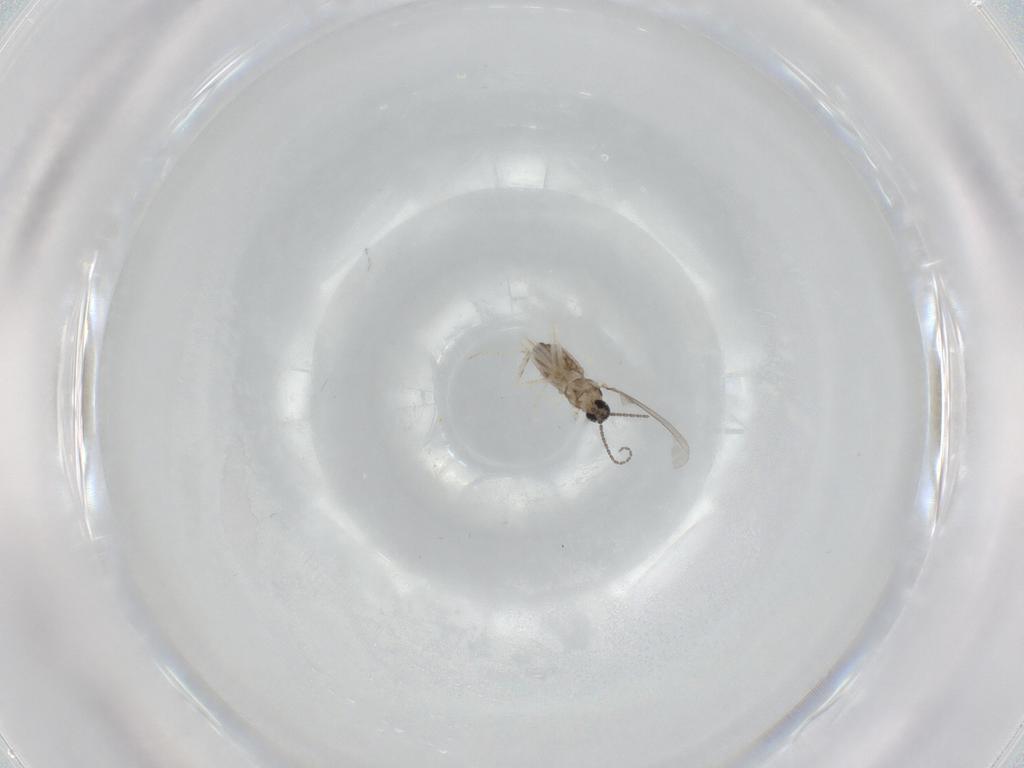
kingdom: Animalia
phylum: Arthropoda
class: Insecta
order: Diptera
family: Cecidomyiidae
